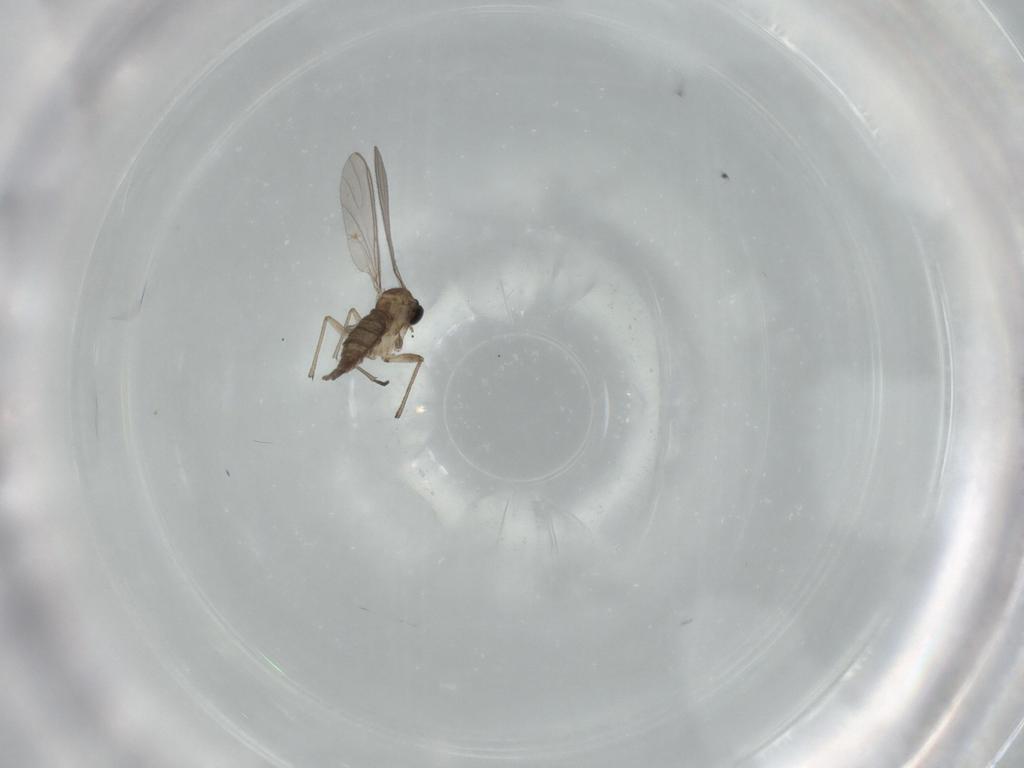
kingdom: Animalia
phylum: Arthropoda
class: Insecta
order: Diptera
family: Sciaridae
